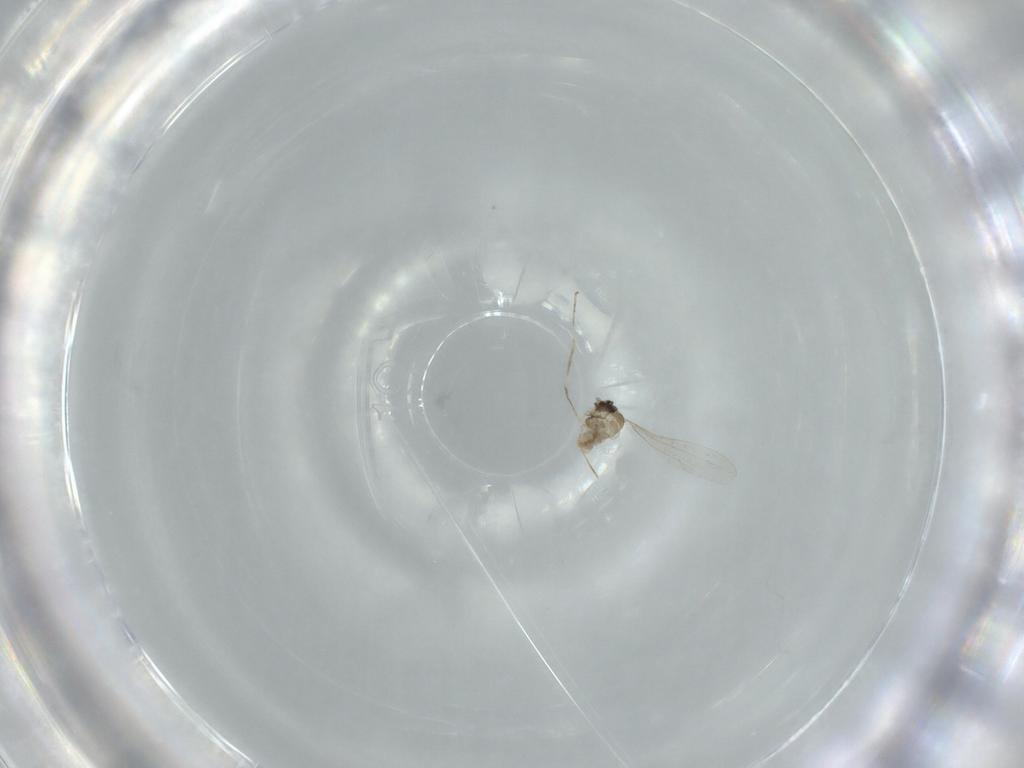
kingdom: Animalia
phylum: Arthropoda
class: Insecta
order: Diptera
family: Cecidomyiidae
